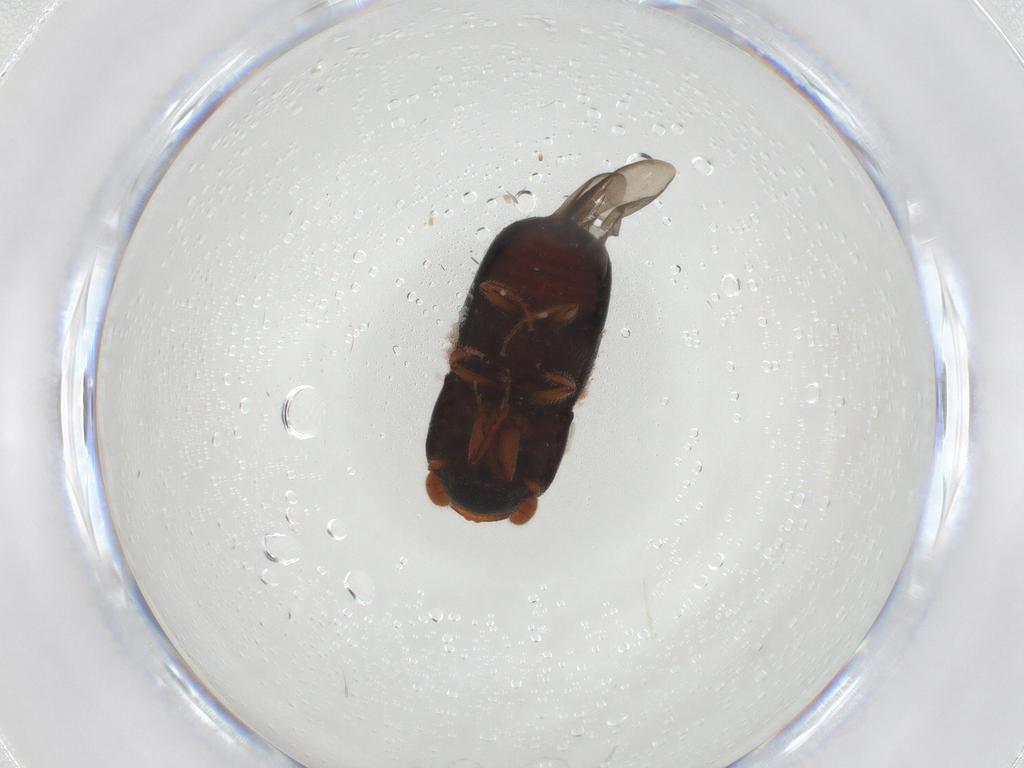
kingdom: Animalia
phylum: Arthropoda
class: Insecta
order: Coleoptera
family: Curculionidae
